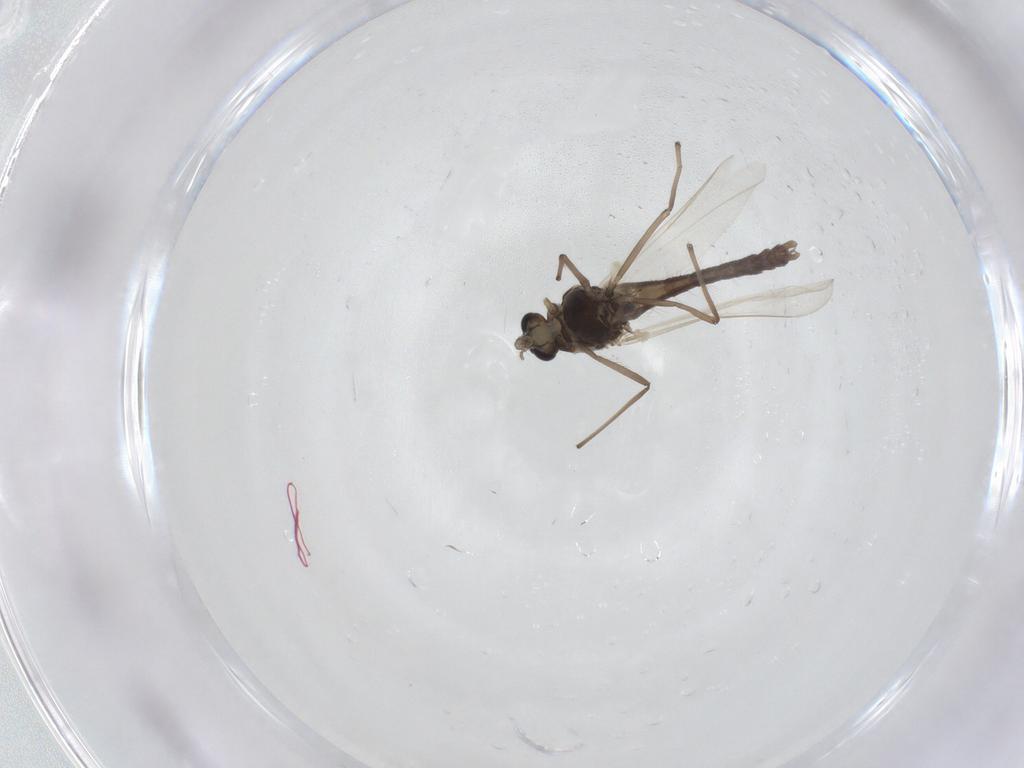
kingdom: Animalia
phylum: Arthropoda
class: Insecta
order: Diptera
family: Chironomidae
